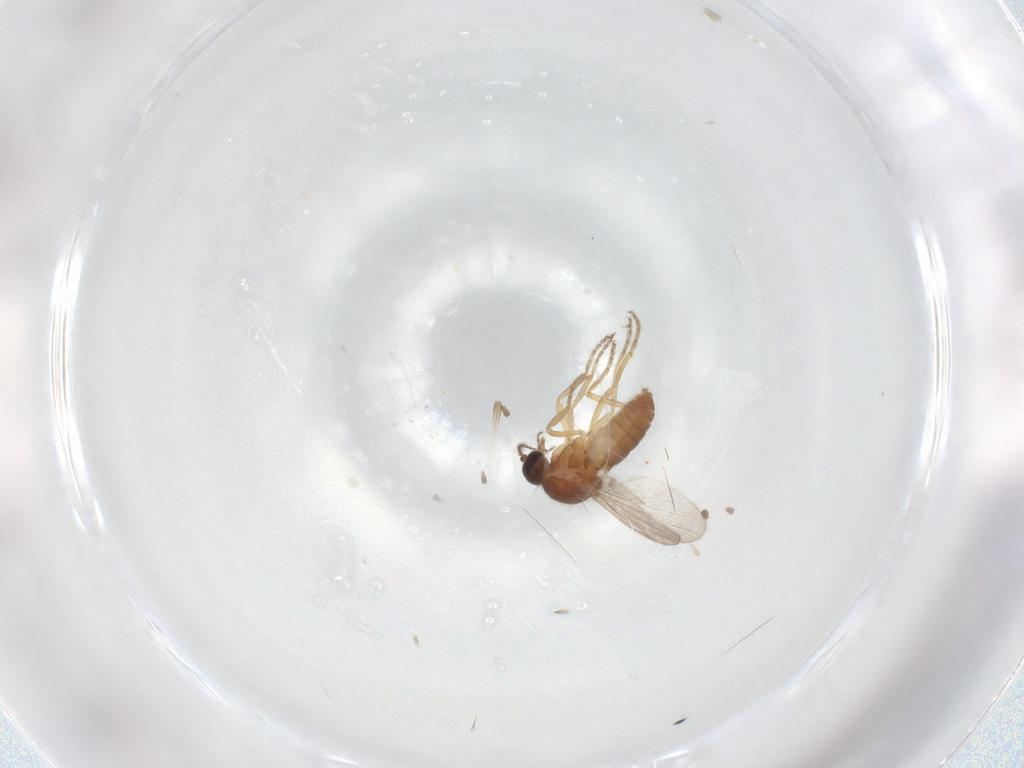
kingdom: Animalia
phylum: Arthropoda
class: Insecta
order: Diptera
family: Ceratopogonidae
